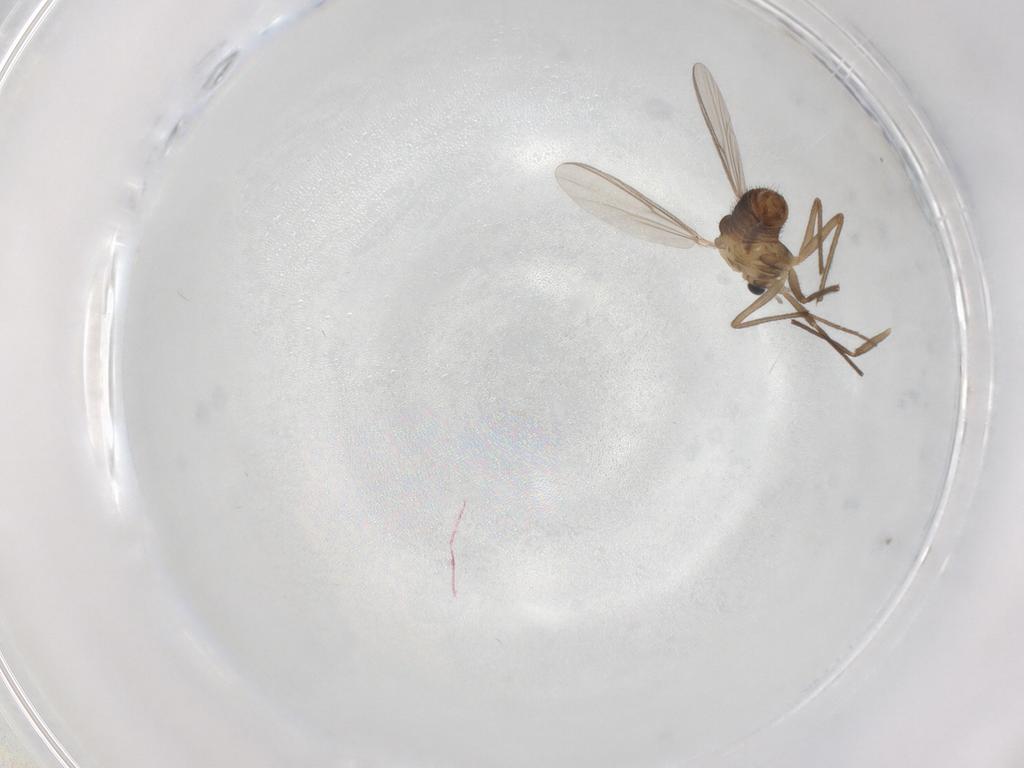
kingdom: Animalia
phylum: Arthropoda
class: Insecta
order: Diptera
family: Chironomidae
